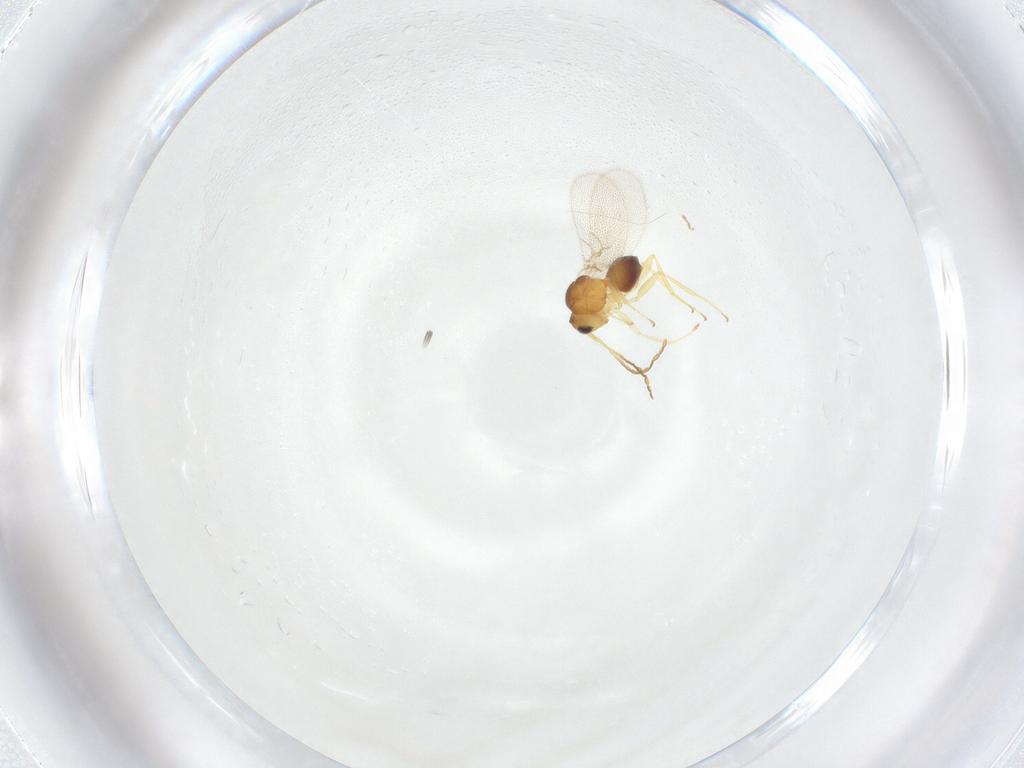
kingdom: Animalia
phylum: Arthropoda
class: Insecta
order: Hymenoptera
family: Figitidae
